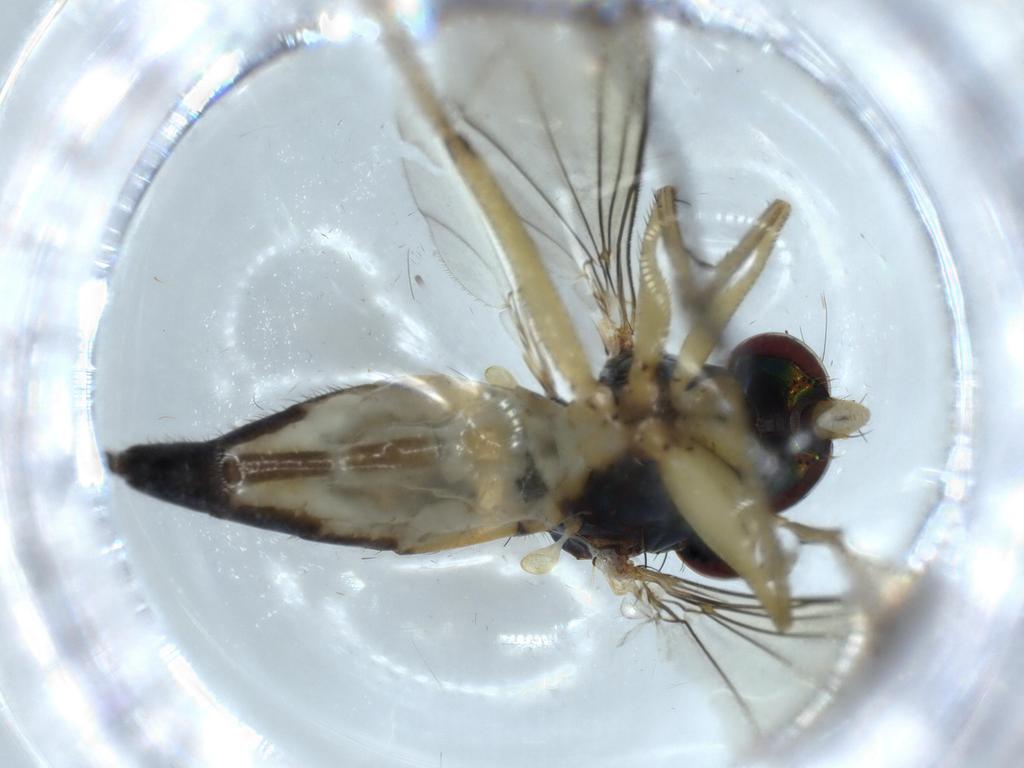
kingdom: Animalia
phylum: Arthropoda
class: Insecta
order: Diptera
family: Dolichopodidae
